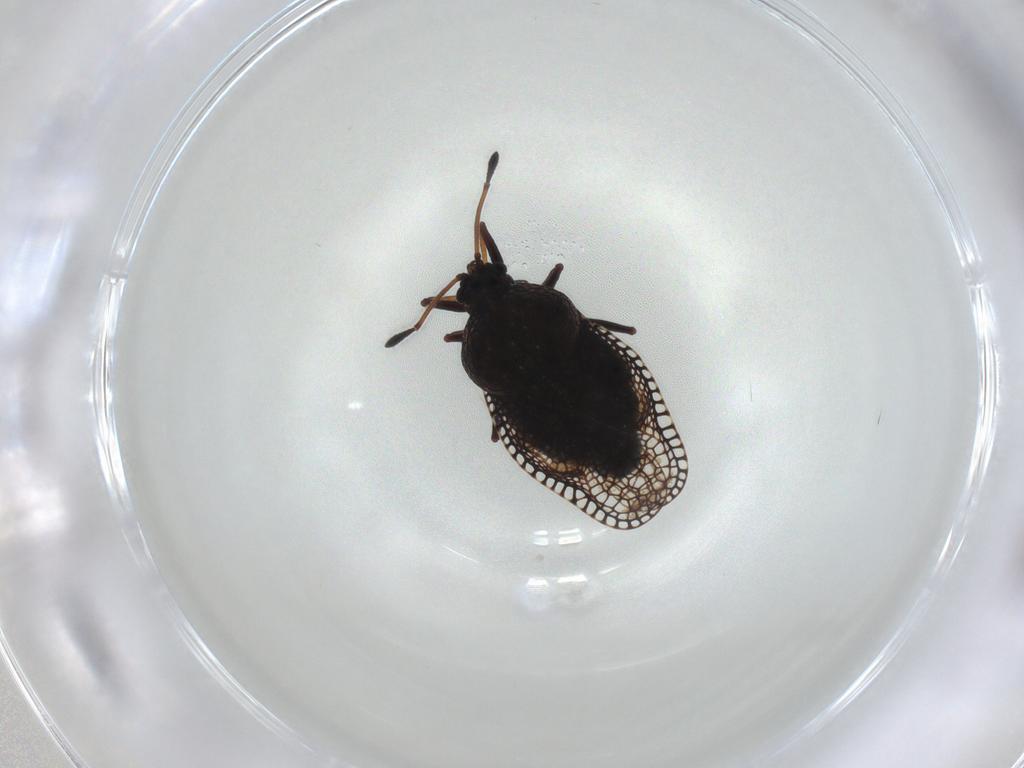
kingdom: Animalia
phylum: Arthropoda
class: Insecta
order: Hemiptera
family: Tingidae
